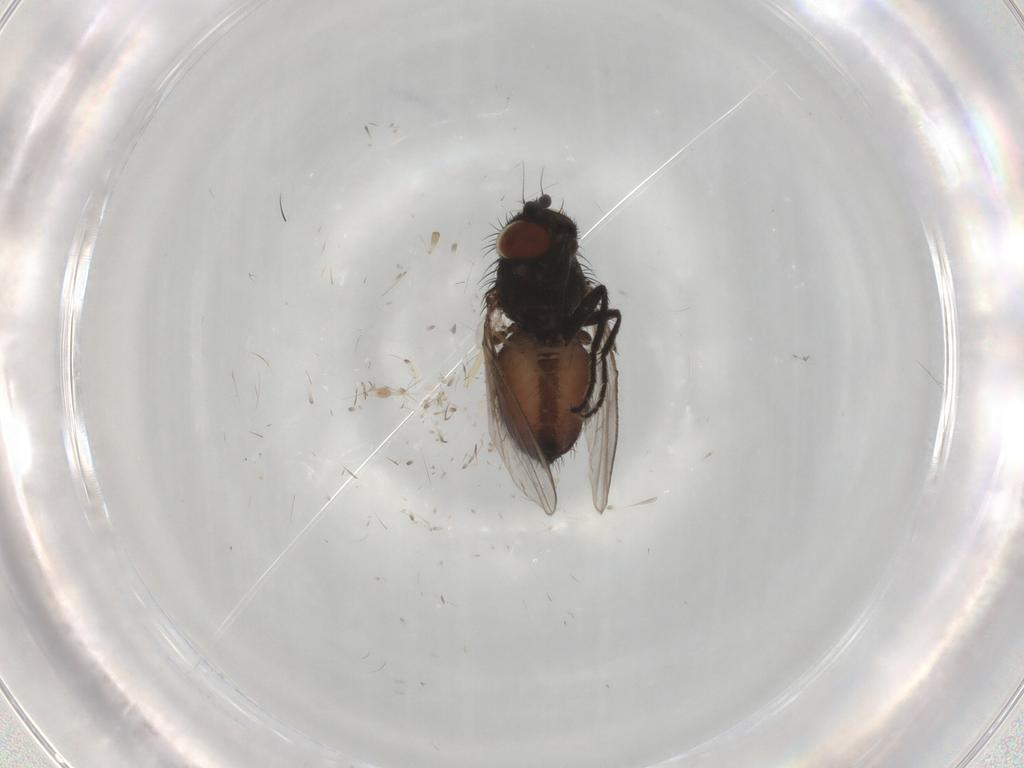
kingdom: Animalia
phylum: Arthropoda
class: Insecta
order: Diptera
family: Milichiidae
